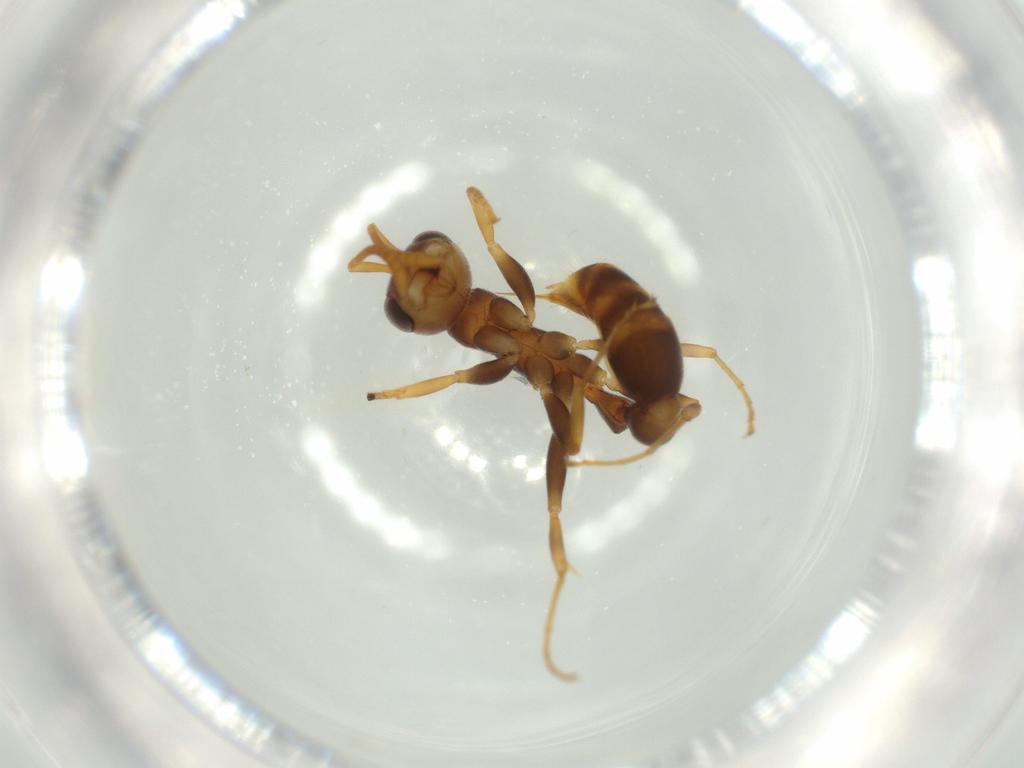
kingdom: Animalia
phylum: Arthropoda
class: Insecta
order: Hymenoptera
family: Formicidae
